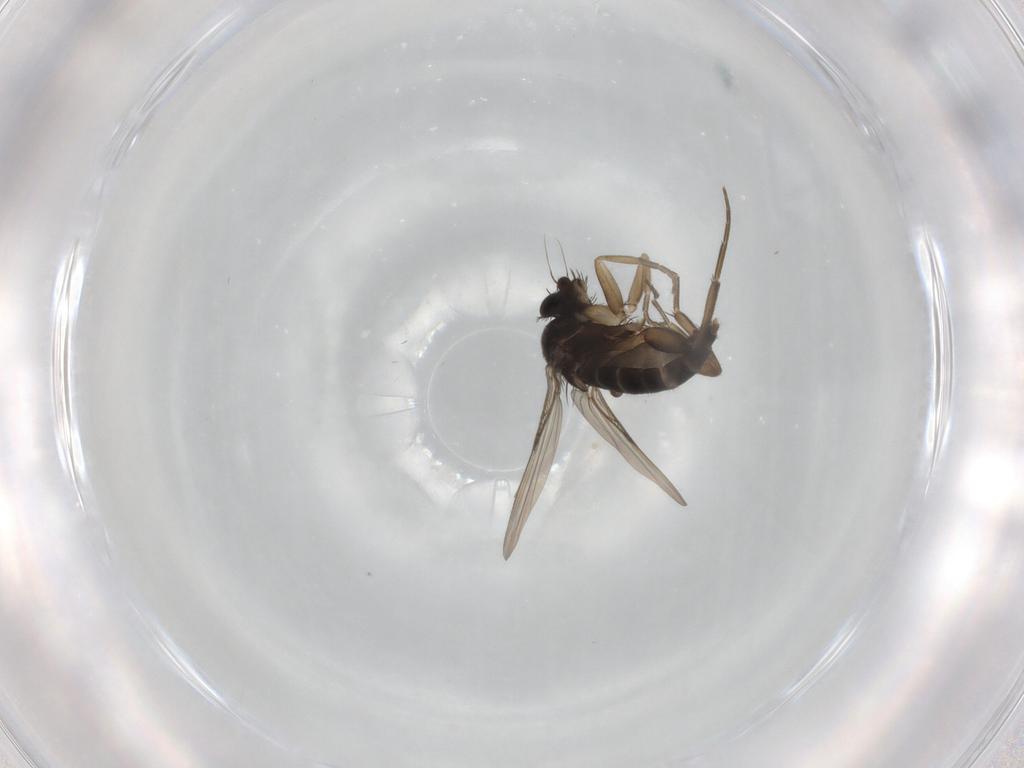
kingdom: Animalia
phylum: Arthropoda
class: Insecta
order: Diptera
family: Phoridae
